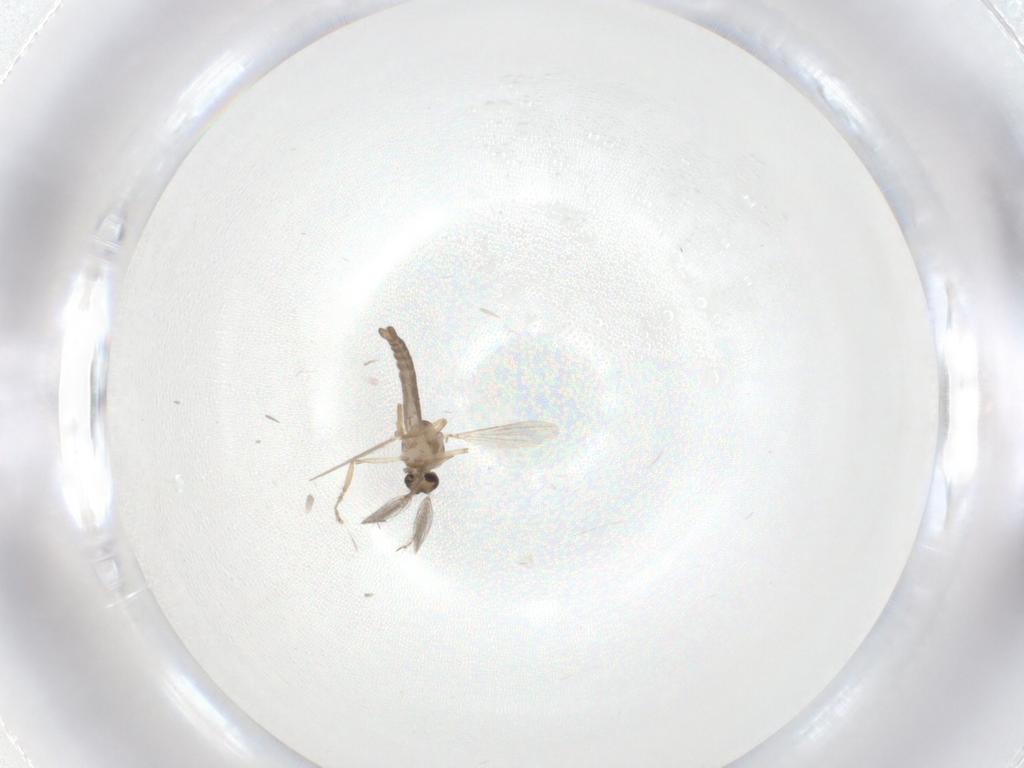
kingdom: Animalia
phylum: Arthropoda
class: Insecta
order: Diptera
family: Ceratopogonidae
